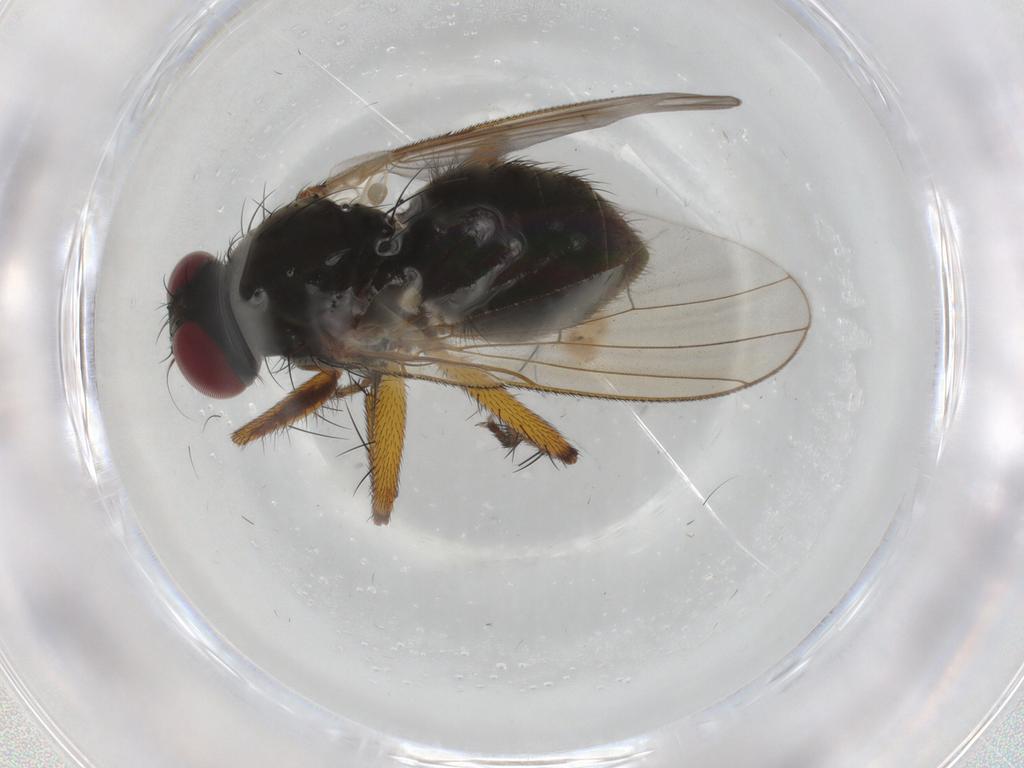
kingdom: Animalia
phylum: Arthropoda
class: Insecta
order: Diptera
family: Muscidae
